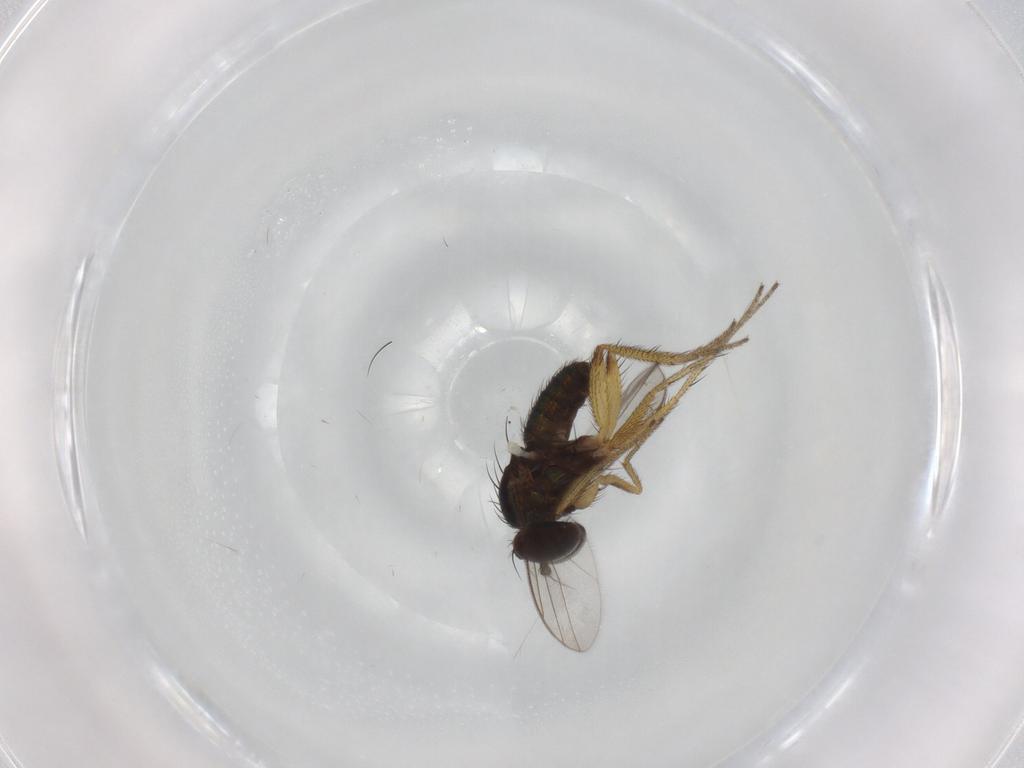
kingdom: Animalia
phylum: Arthropoda
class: Insecta
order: Diptera
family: Dolichopodidae
